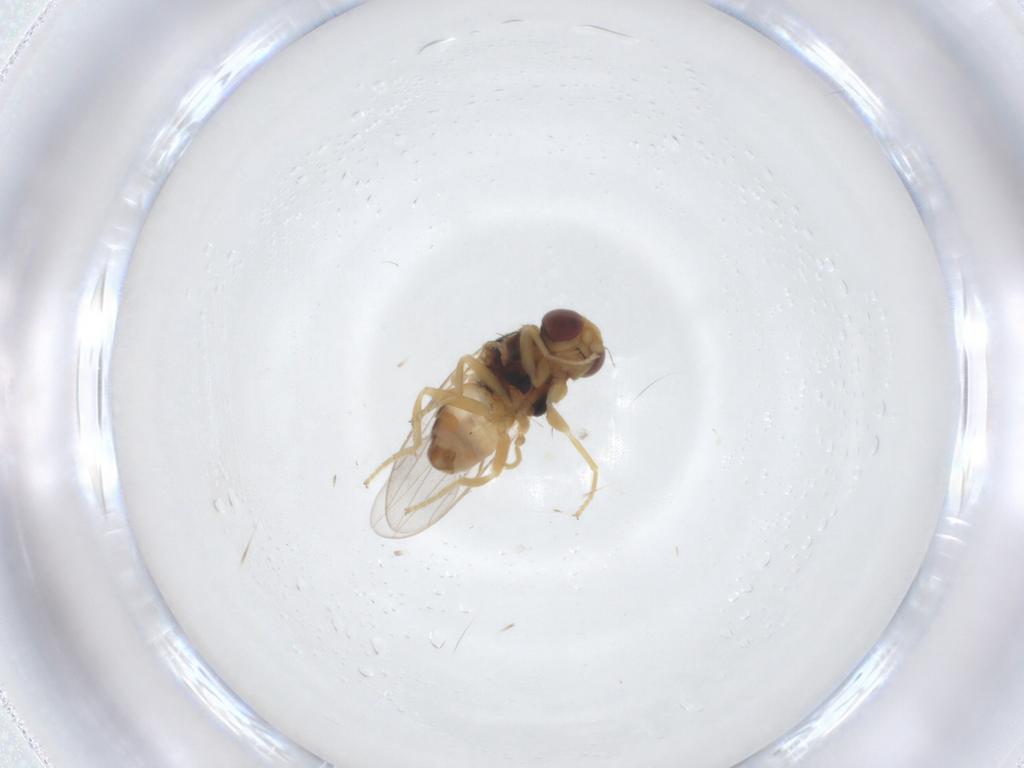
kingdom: Animalia
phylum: Arthropoda
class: Insecta
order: Diptera
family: Chloropidae
